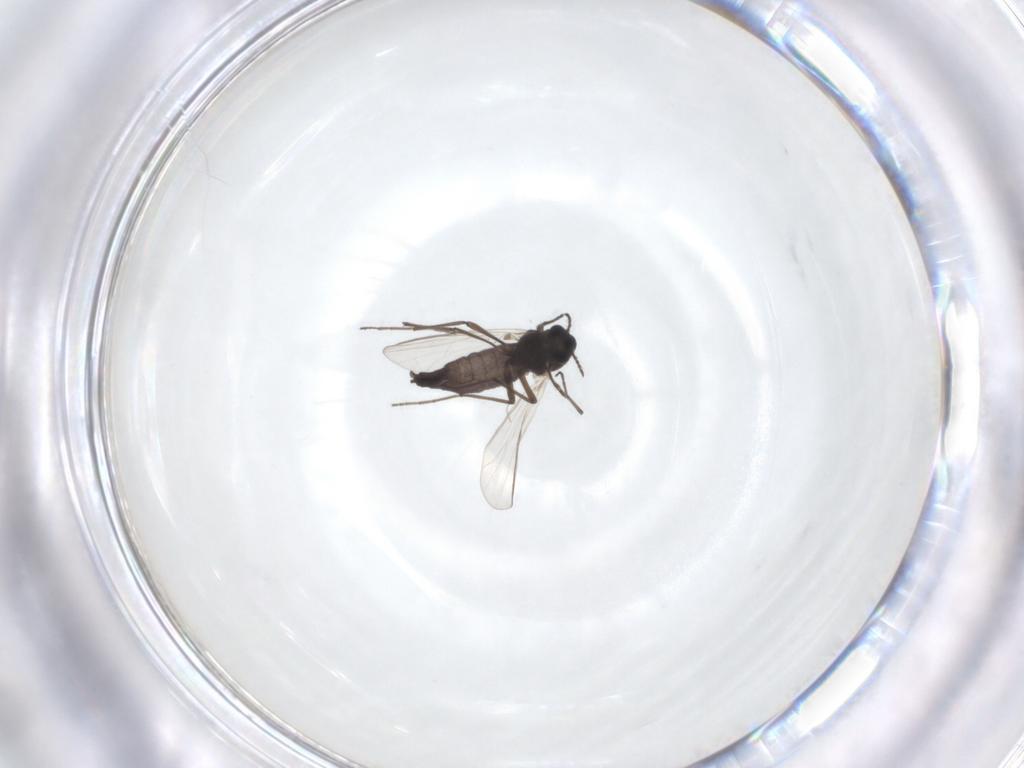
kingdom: Animalia
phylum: Arthropoda
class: Insecta
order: Diptera
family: Chironomidae
